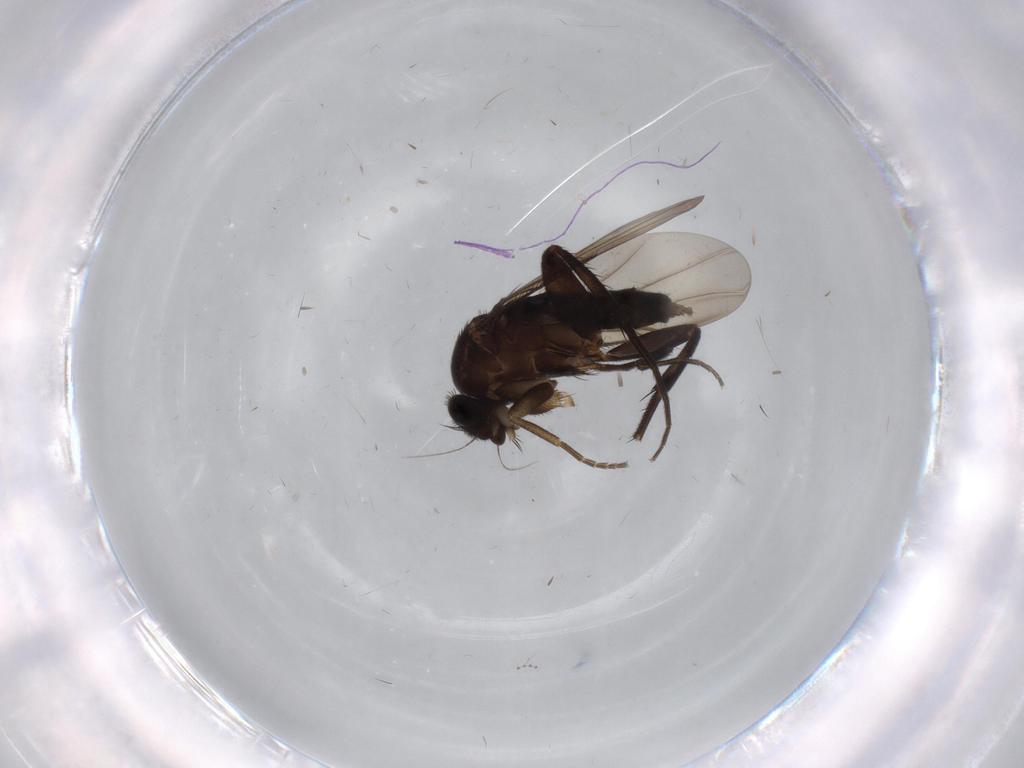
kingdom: Animalia
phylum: Arthropoda
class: Insecta
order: Diptera
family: Phoridae
